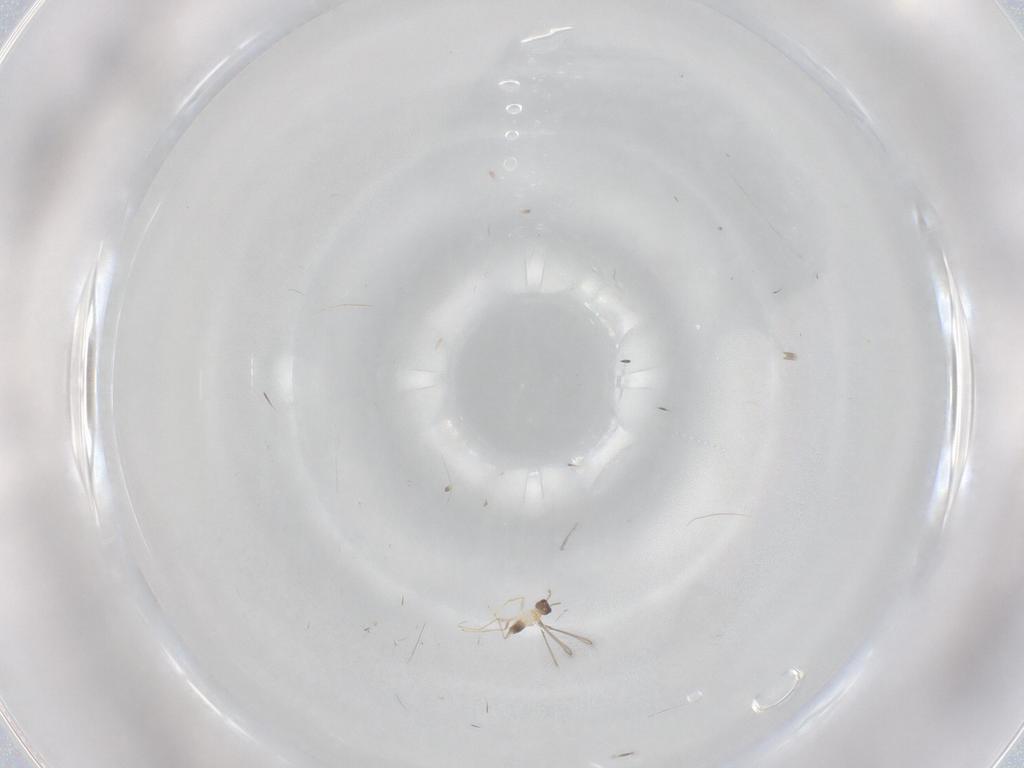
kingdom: Animalia
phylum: Arthropoda
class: Insecta
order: Hymenoptera
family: Mymaridae
